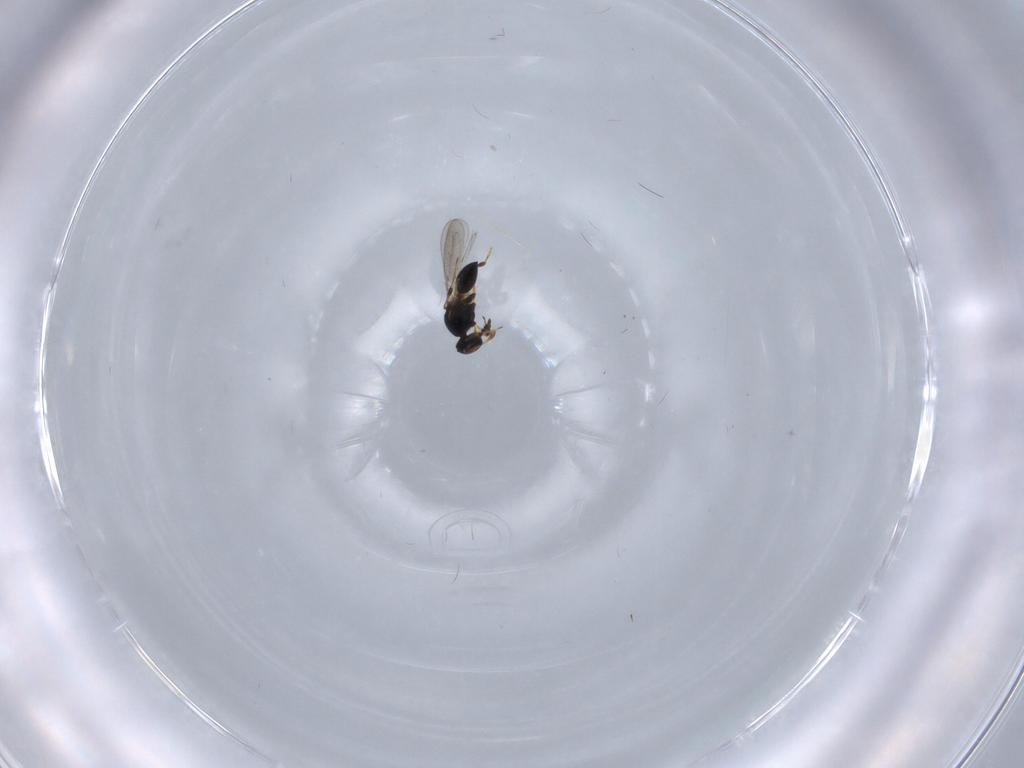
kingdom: Animalia
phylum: Arthropoda
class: Insecta
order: Hymenoptera
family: Platygastridae
